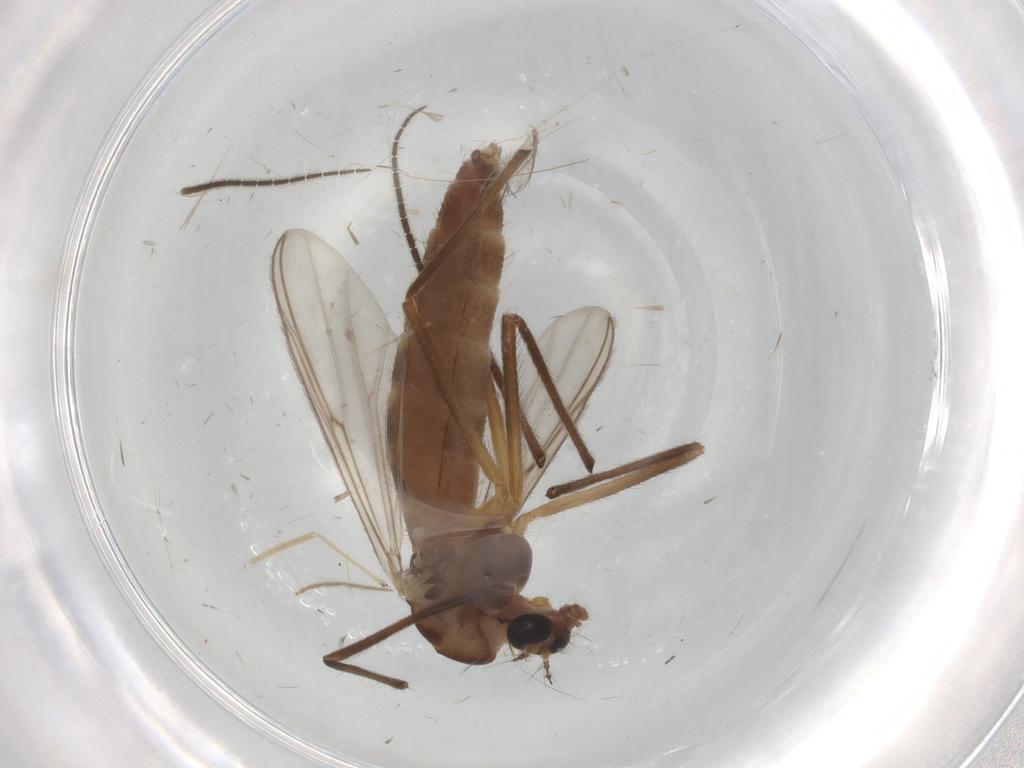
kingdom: Animalia
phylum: Arthropoda
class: Insecta
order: Diptera
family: Chironomidae
